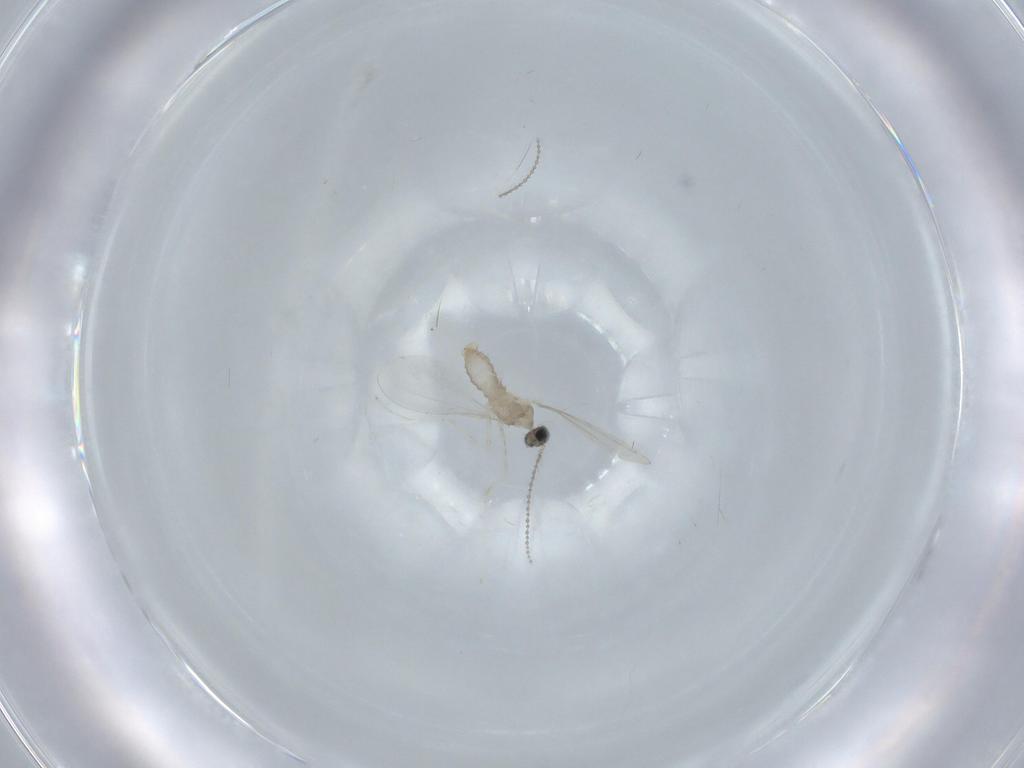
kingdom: Animalia
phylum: Arthropoda
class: Insecta
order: Diptera
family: Cecidomyiidae
